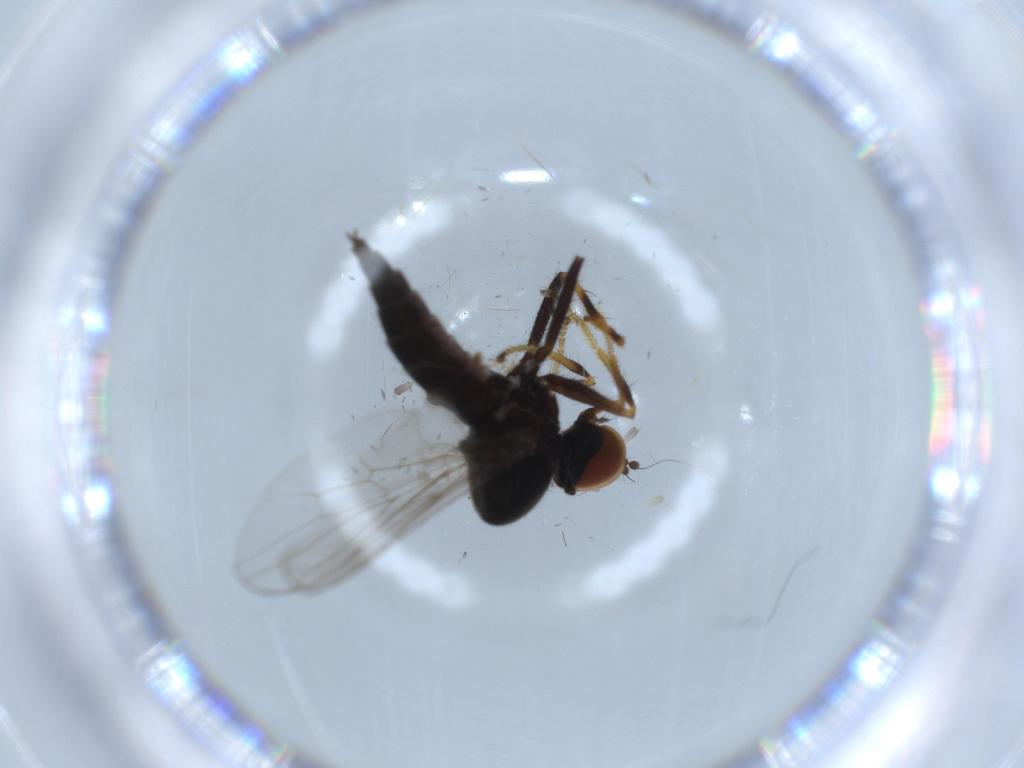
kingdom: Animalia
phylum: Arthropoda
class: Insecta
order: Diptera
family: Hybotidae
